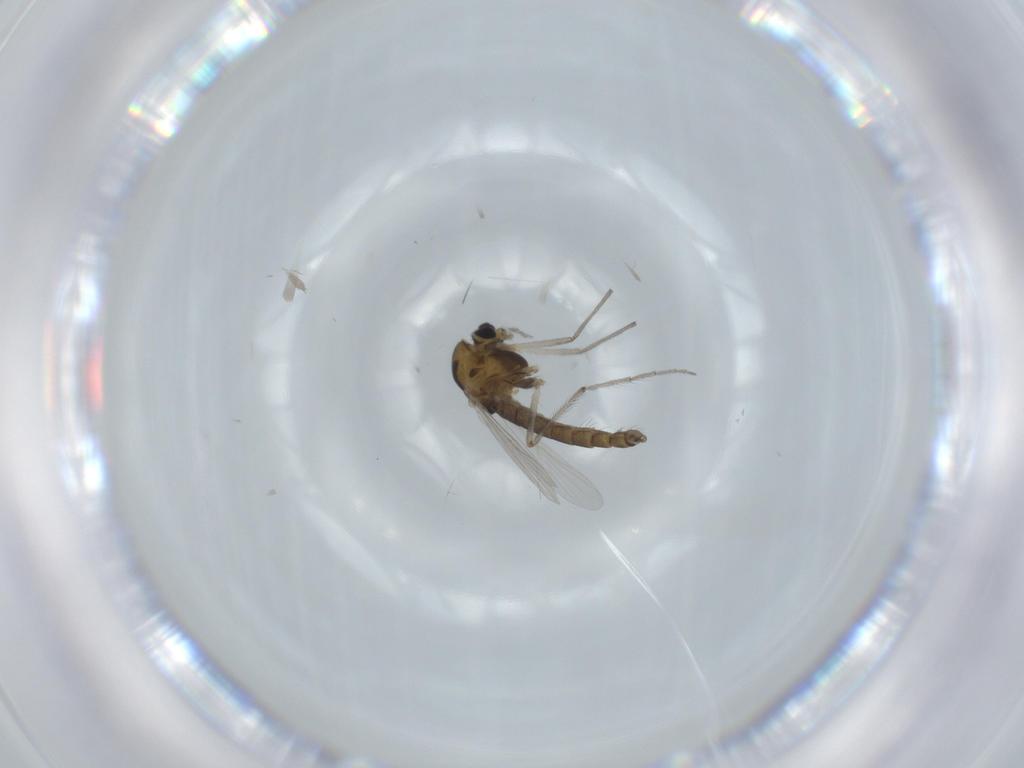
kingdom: Animalia
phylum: Arthropoda
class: Insecta
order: Diptera
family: Chironomidae
